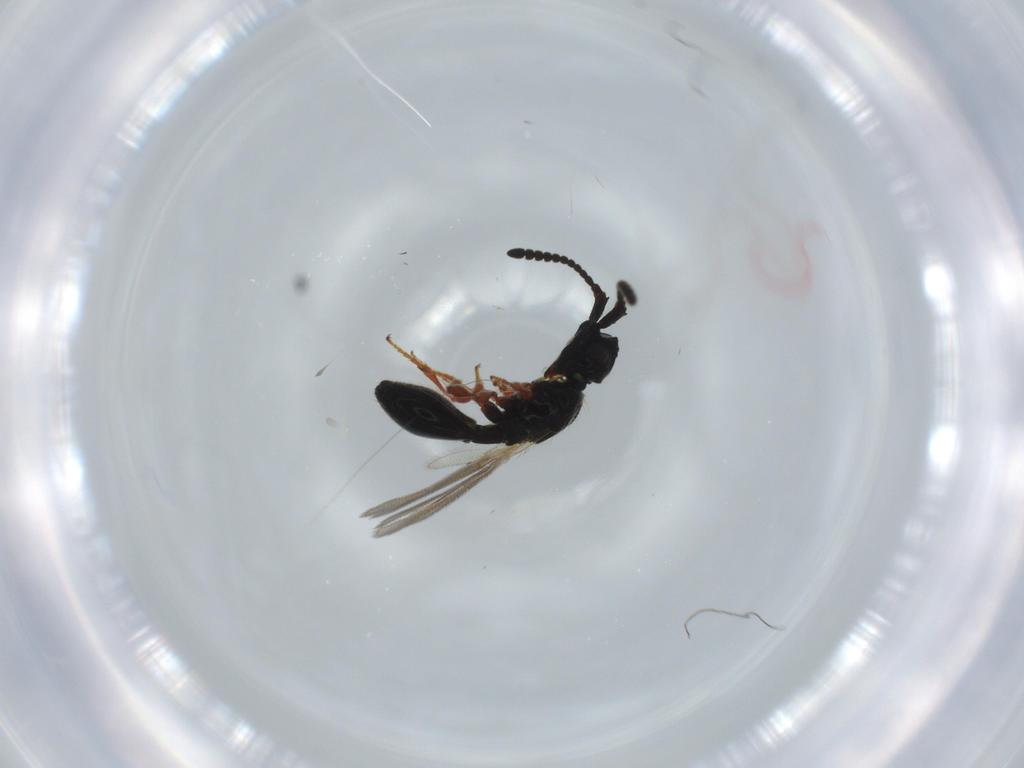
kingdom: Animalia
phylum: Arthropoda
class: Insecta
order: Hymenoptera
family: Diapriidae
